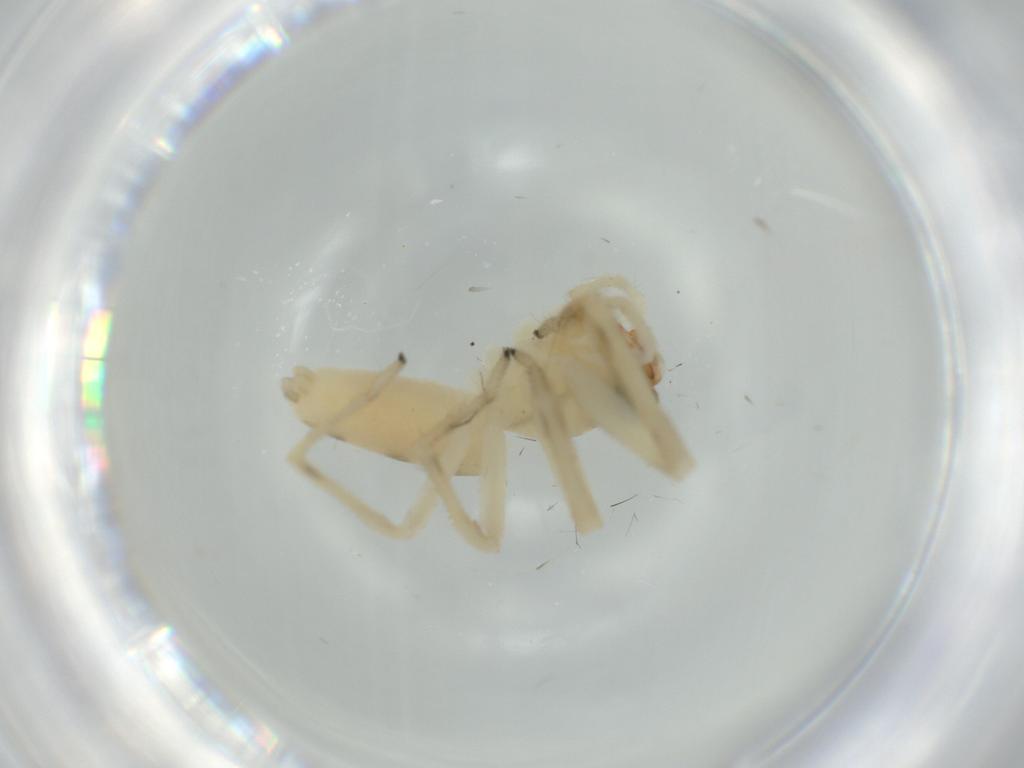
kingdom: Animalia
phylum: Arthropoda
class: Arachnida
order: Araneae
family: Salticidae
